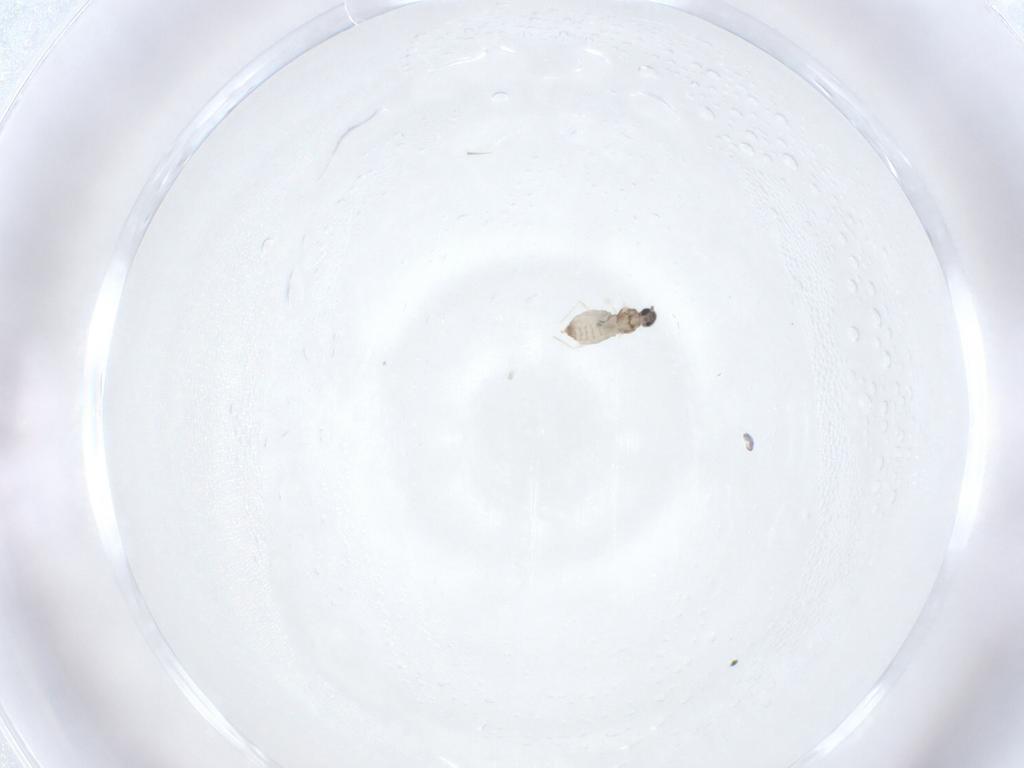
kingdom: Animalia
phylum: Arthropoda
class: Insecta
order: Diptera
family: Cecidomyiidae
